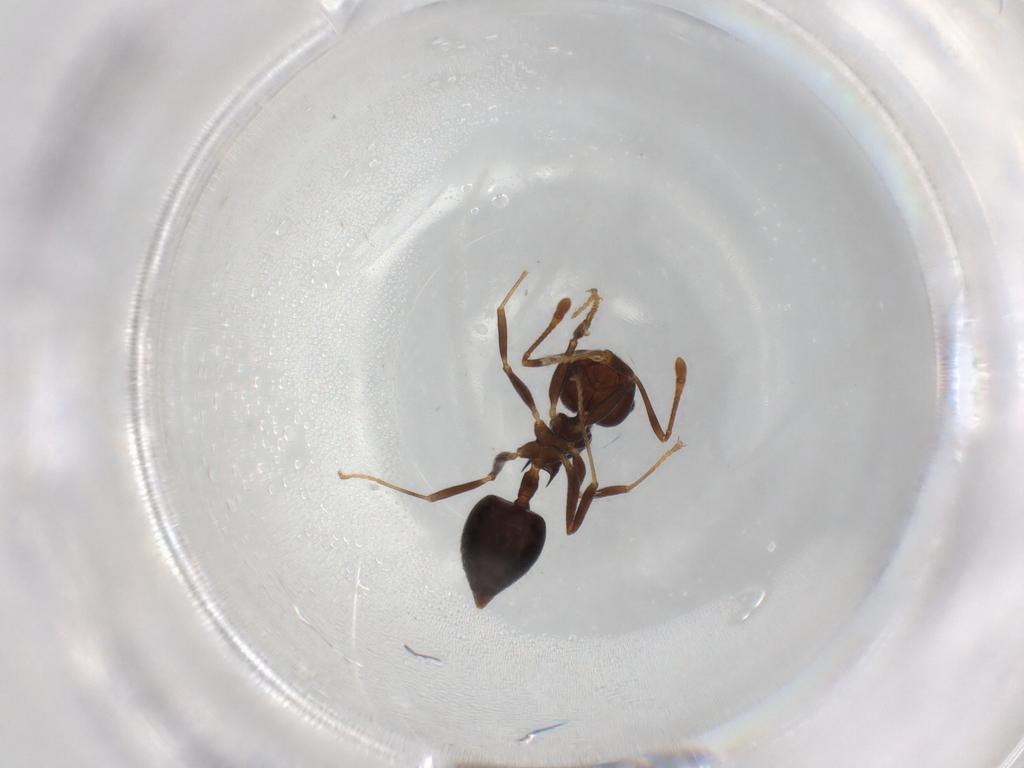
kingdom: Animalia
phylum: Arthropoda
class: Insecta
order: Hymenoptera
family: Formicidae
